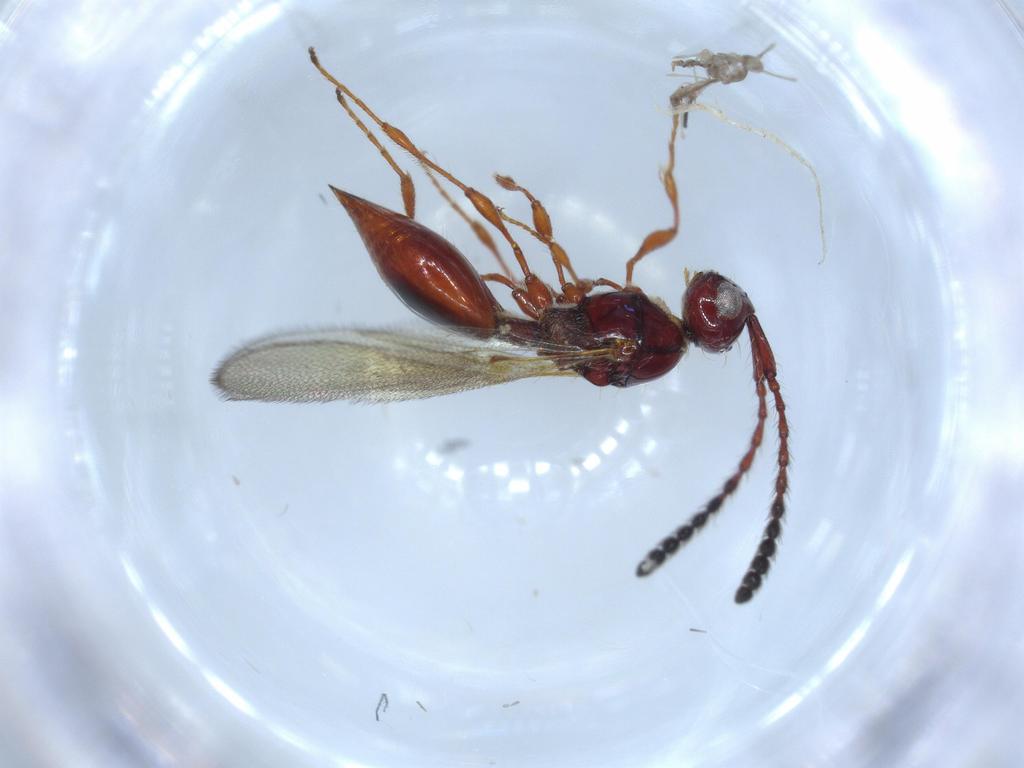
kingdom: Animalia
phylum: Arthropoda
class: Insecta
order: Hymenoptera
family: Diapriidae
